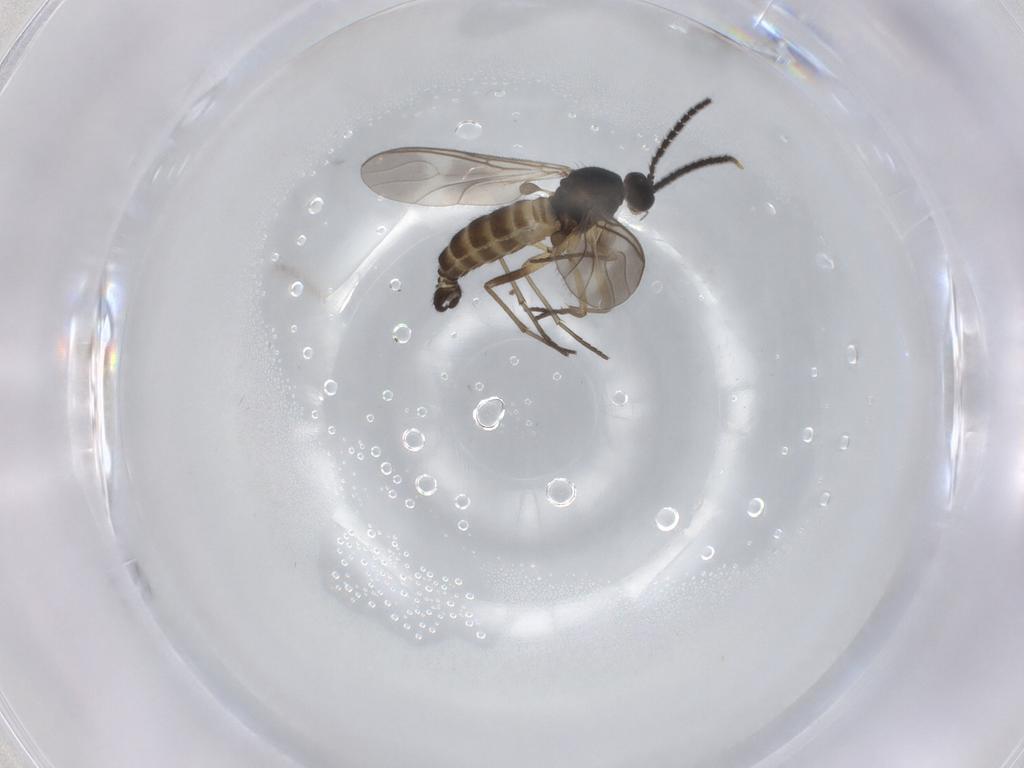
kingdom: Animalia
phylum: Arthropoda
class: Insecta
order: Diptera
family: Sciaridae
